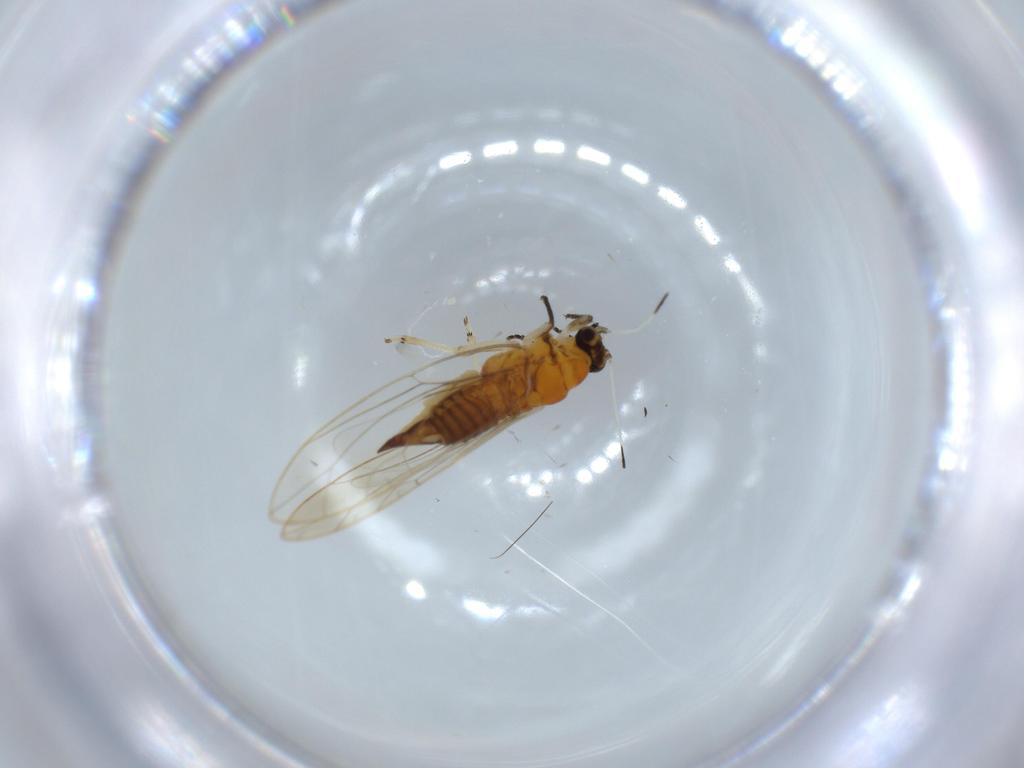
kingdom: Animalia
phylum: Arthropoda
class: Insecta
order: Hemiptera
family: Triozidae
